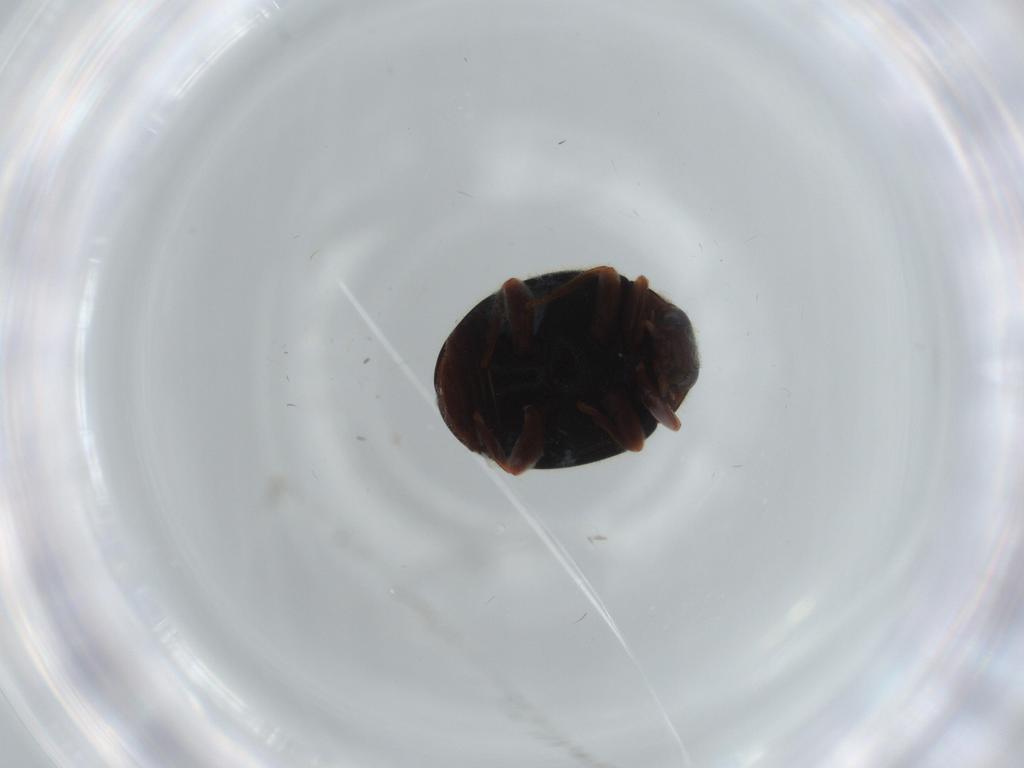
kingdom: Animalia
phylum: Arthropoda
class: Insecta
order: Coleoptera
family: Coccinellidae
